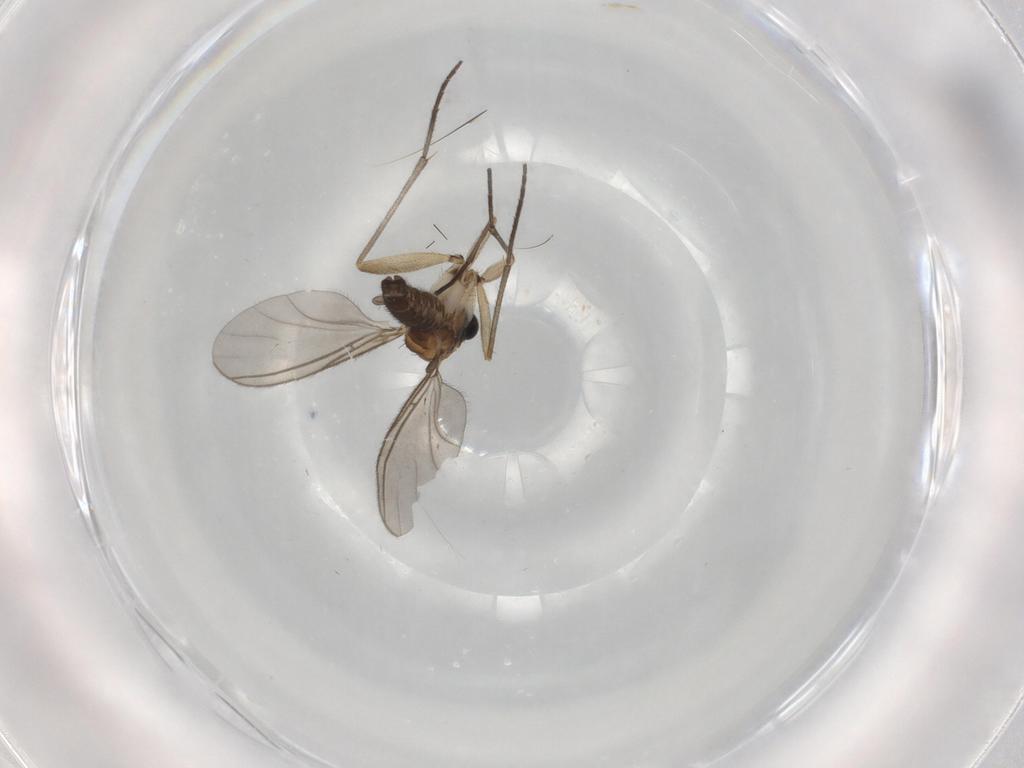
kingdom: Animalia
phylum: Arthropoda
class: Insecta
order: Diptera
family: Sciaridae
